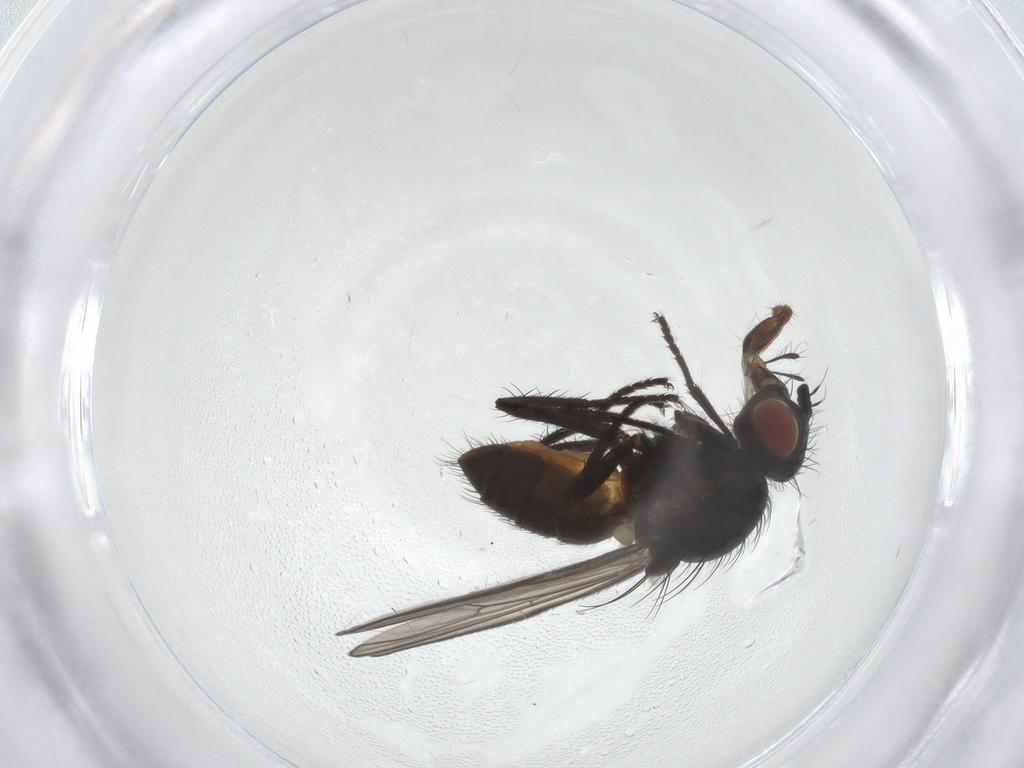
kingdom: Animalia
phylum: Arthropoda
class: Insecta
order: Diptera
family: Anthomyiidae
